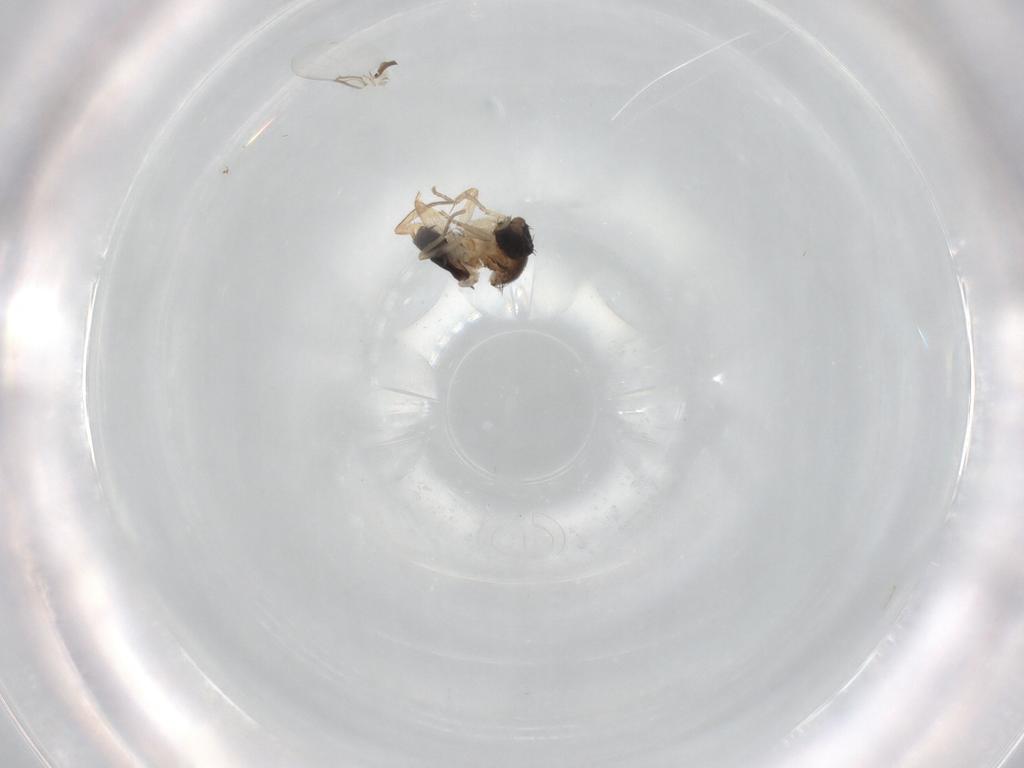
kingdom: Animalia
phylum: Arthropoda
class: Insecta
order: Diptera
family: Phoridae
